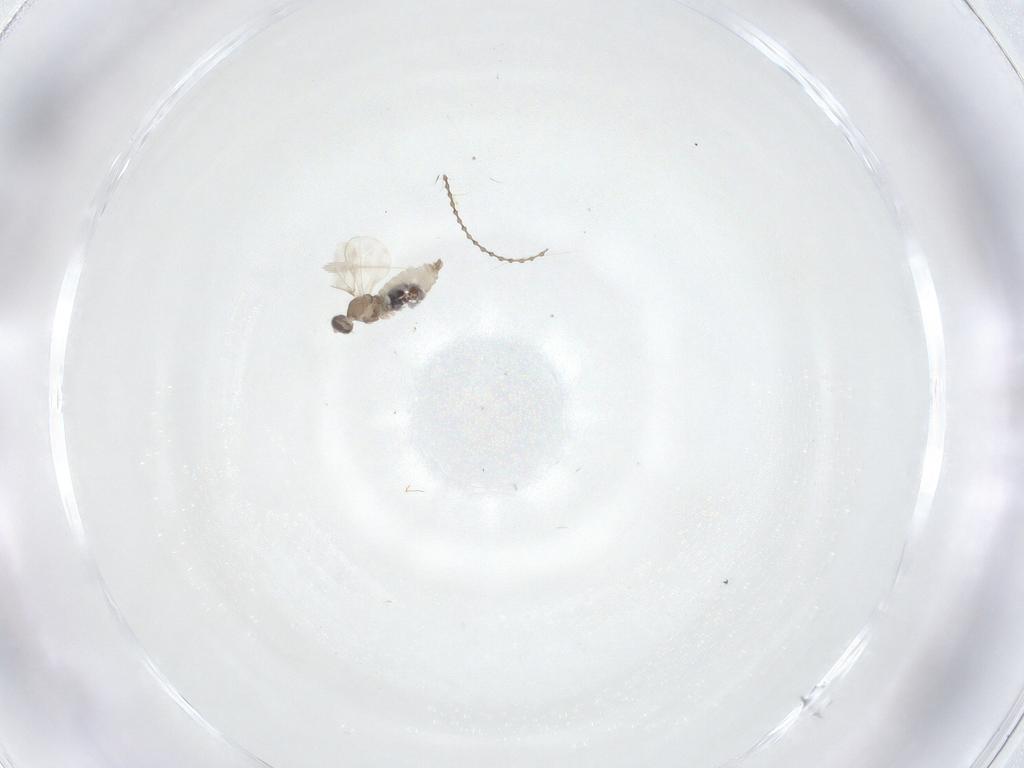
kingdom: Animalia
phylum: Arthropoda
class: Insecta
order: Diptera
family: Cecidomyiidae
